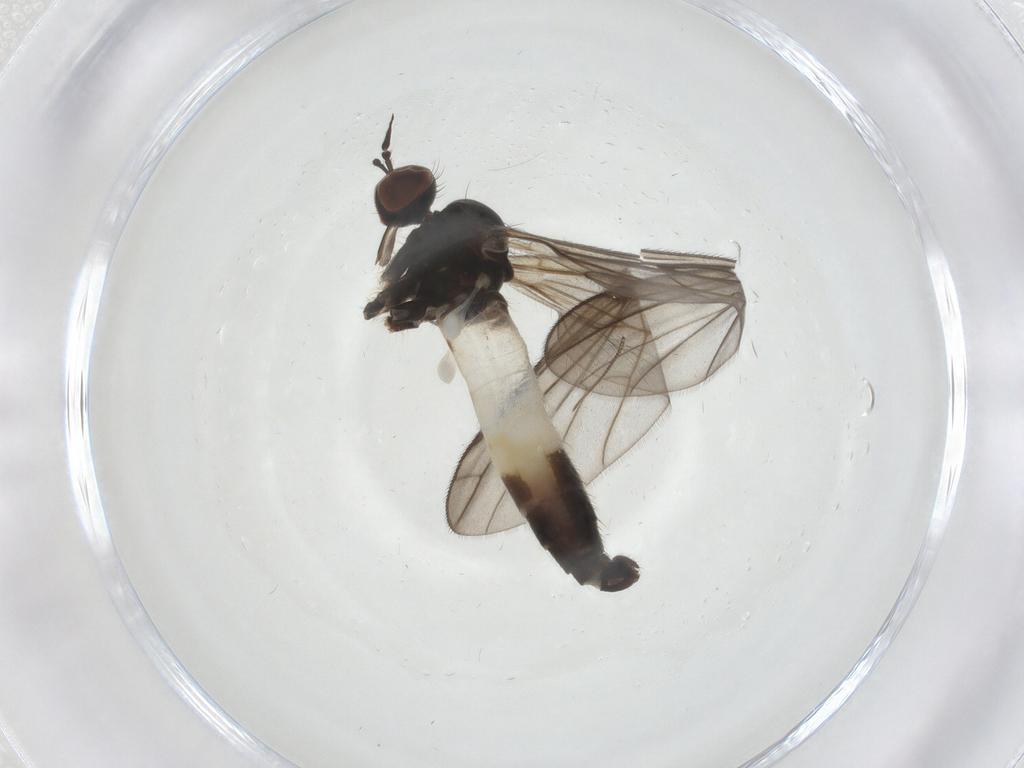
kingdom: Animalia
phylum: Arthropoda
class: Insecta
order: Diptera
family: Empididae
